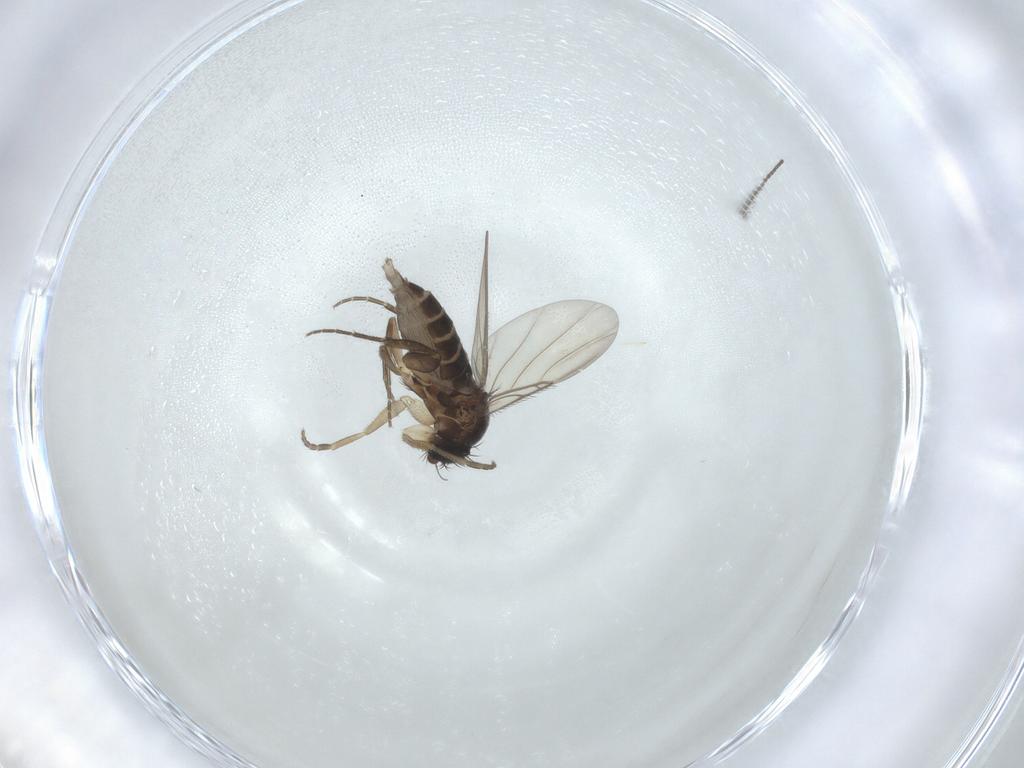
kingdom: Animalia
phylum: Arthropoda
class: Insecta
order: Diptera
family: Phoridae
